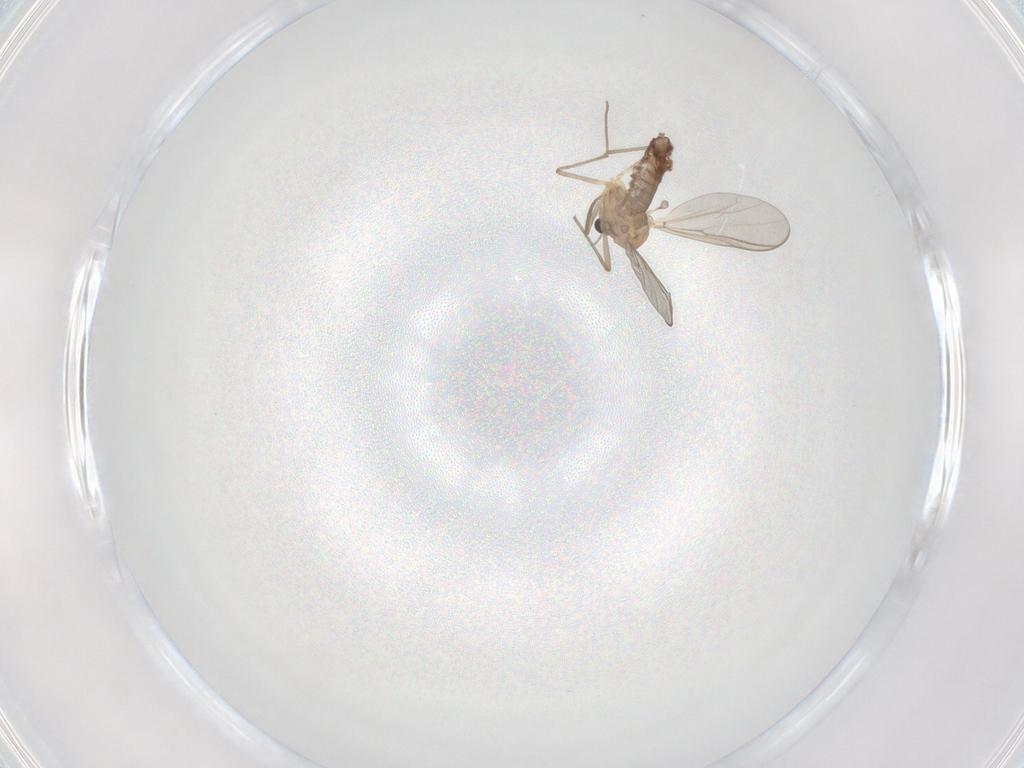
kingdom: Animalia
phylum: Arthropoda
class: Insecta
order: Diptera
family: Chironomidae
